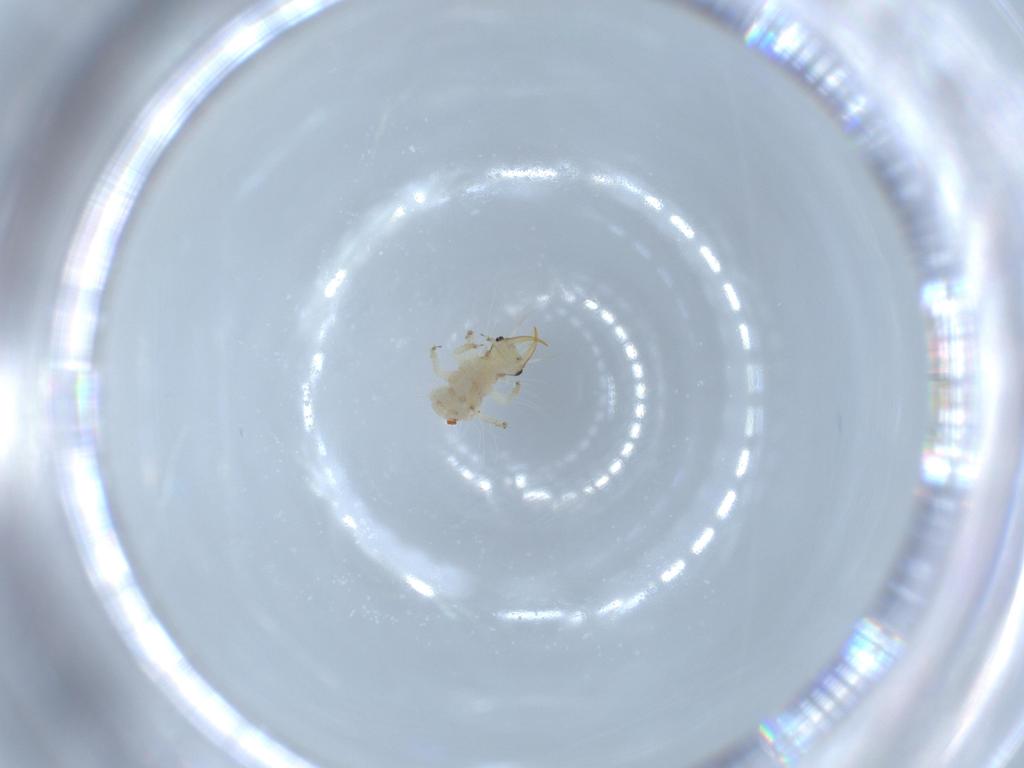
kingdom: Animalia
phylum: Arthropoda
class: Insecta
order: Neuroptera
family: Chrysopidae
